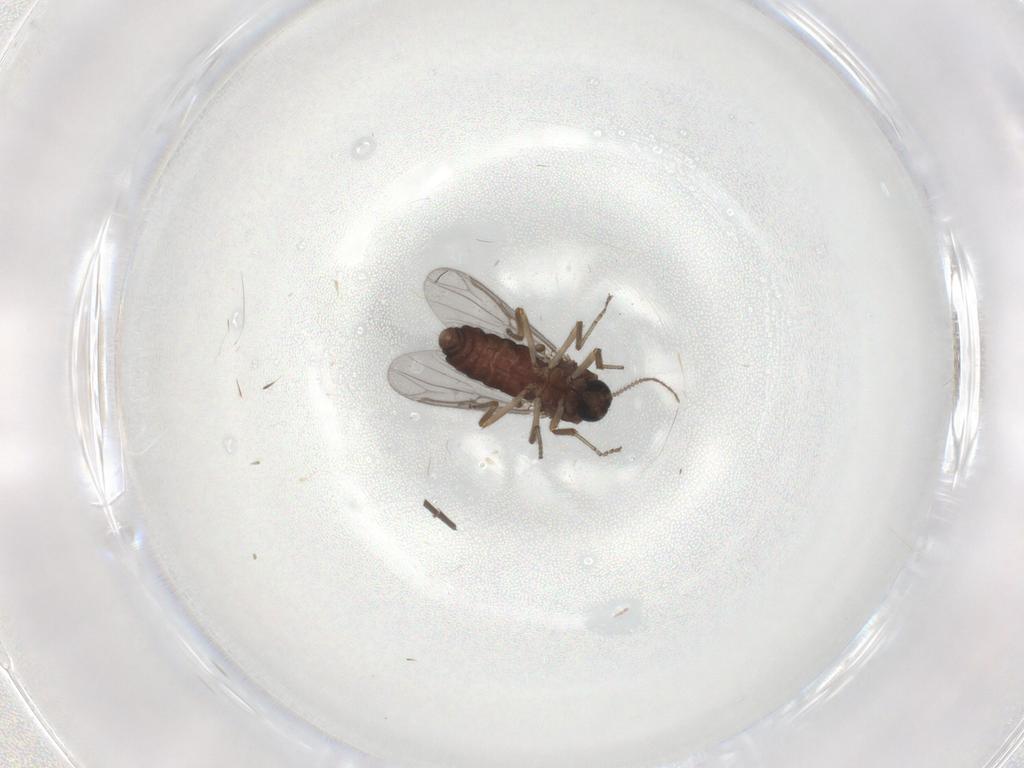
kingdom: Animalia
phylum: Arthropoda
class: Insecta
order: Diptera
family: Ceratopogonidae
